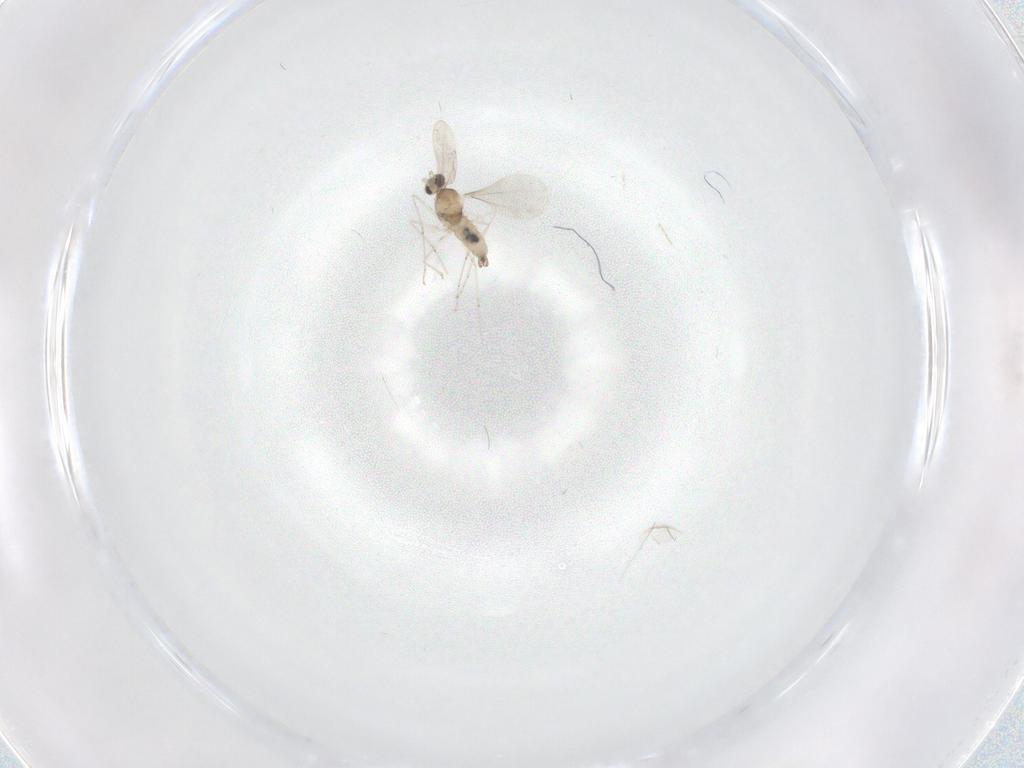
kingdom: Animalia
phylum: Arthropoda
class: Insecta
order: Diptera
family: Cecidomyiidae
